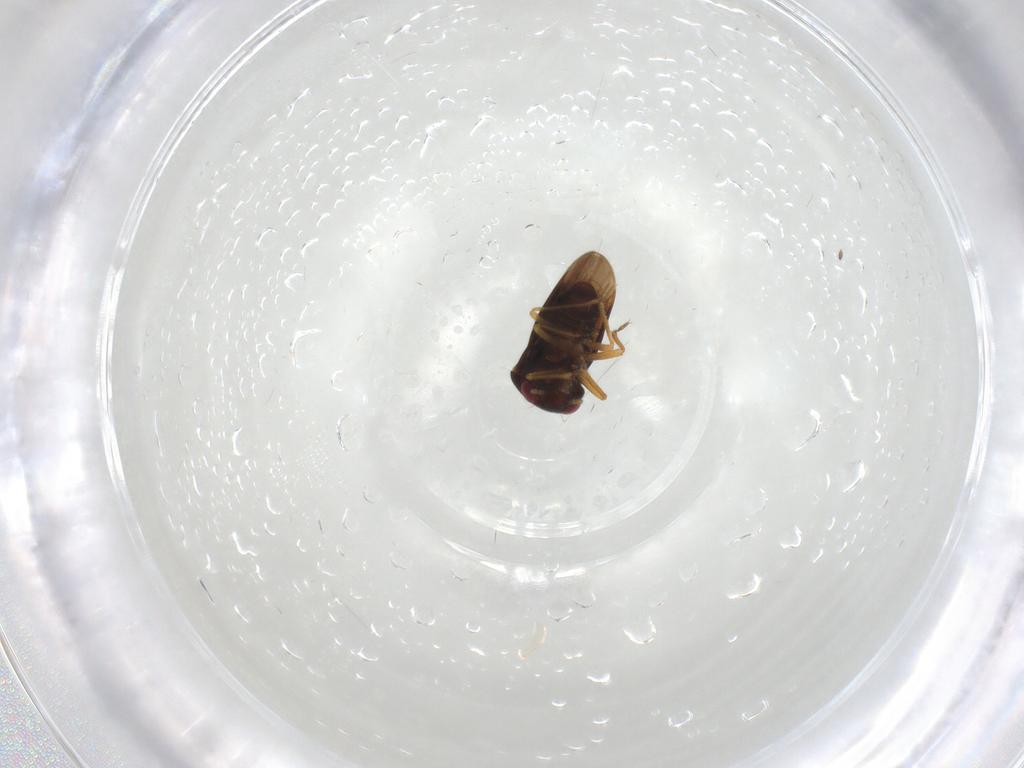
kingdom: Animalia
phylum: Arthropoda
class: Insecta
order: Hemiptera
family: Schizopteridae
